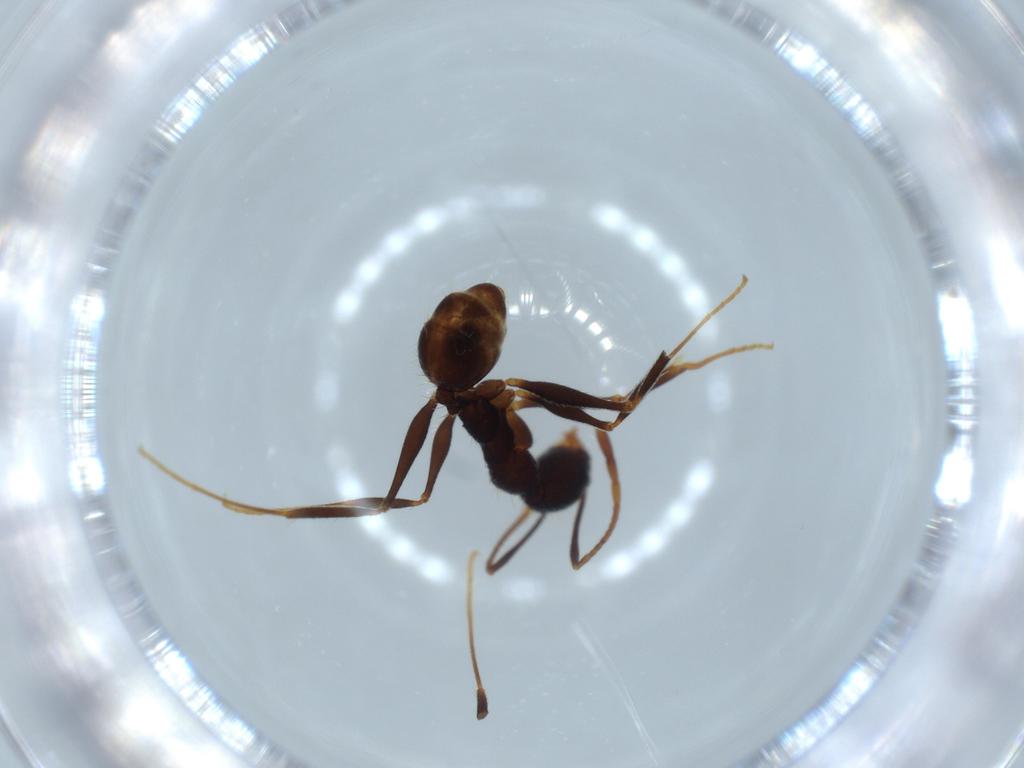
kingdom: Animalia
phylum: Arthropoda
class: Insecta
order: Hymenoptera
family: Formicidae
